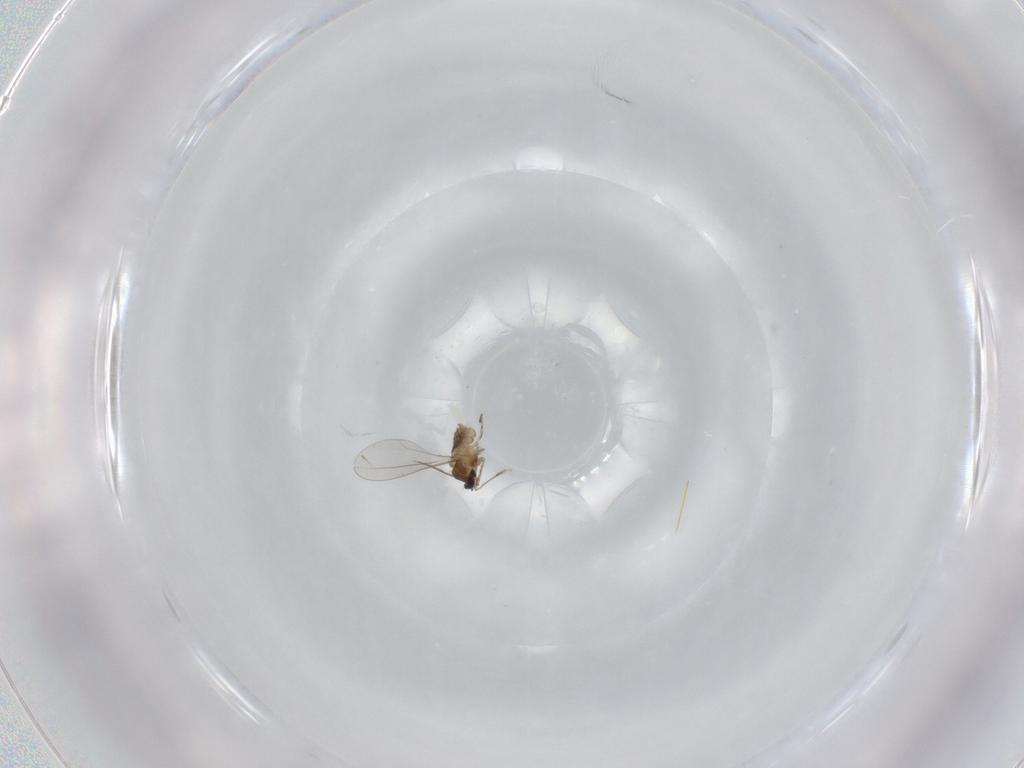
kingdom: Animalia
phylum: Arthropoda
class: Insecta
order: Diptera
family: Cecidomyiidae
